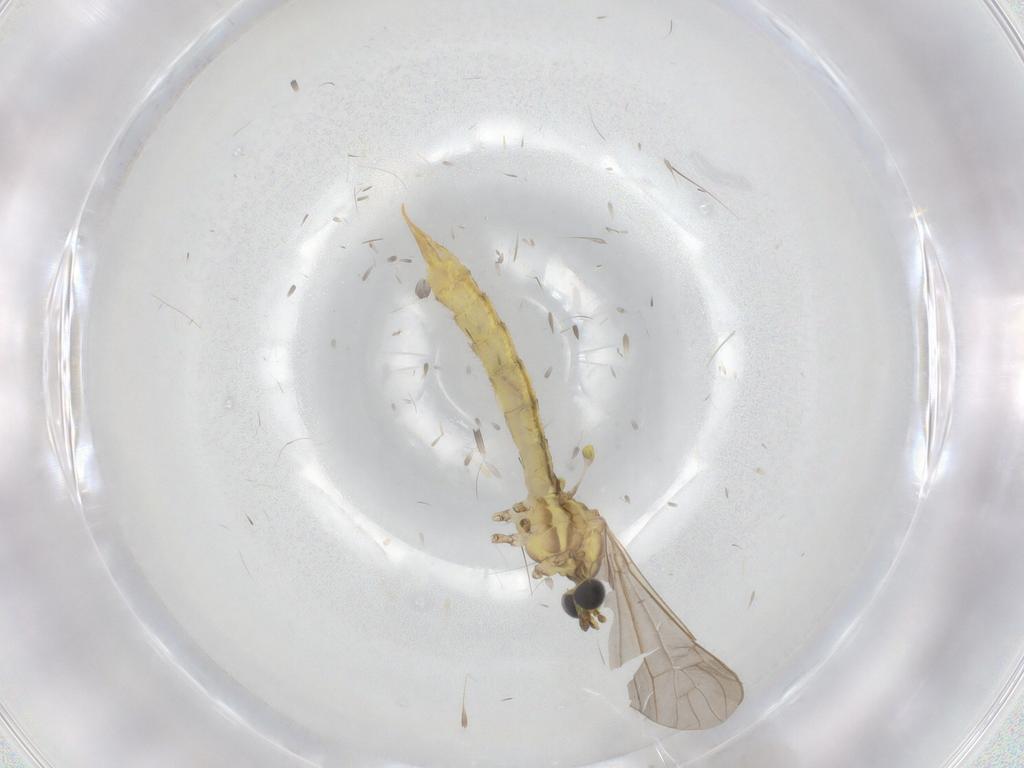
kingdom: Animalia
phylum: Arthropoda
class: Insecta
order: Diptera
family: Limoniidae
